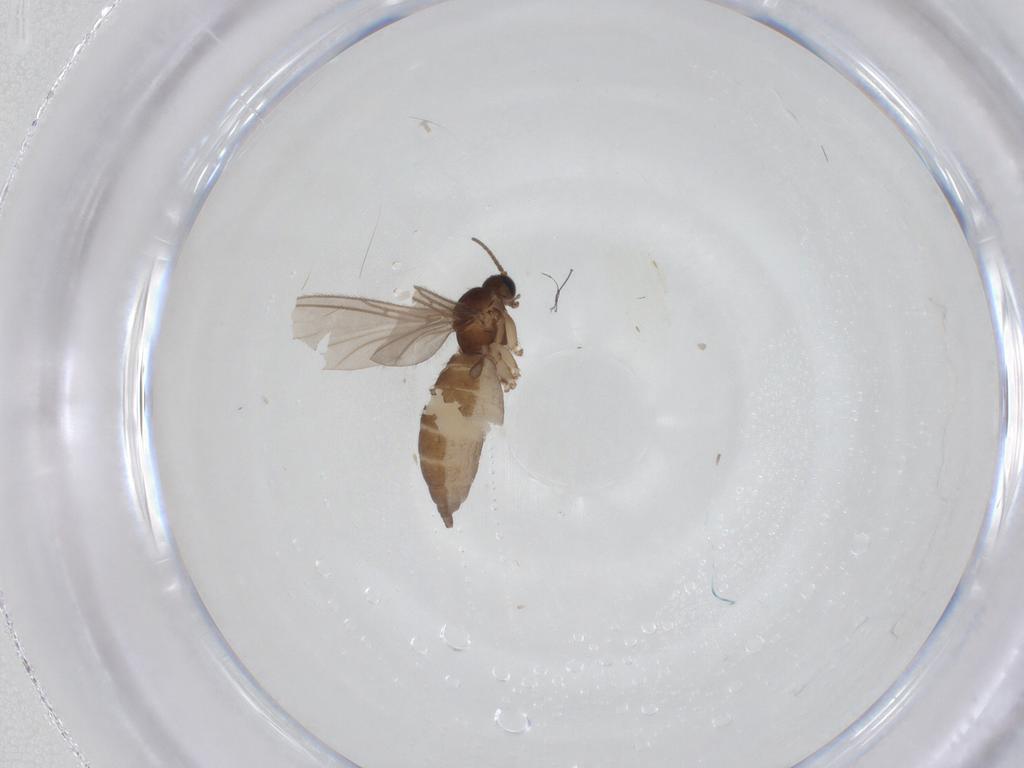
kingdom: Animalia
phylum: Arthropoda
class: Insecta
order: Diptera
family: Sciaridae
